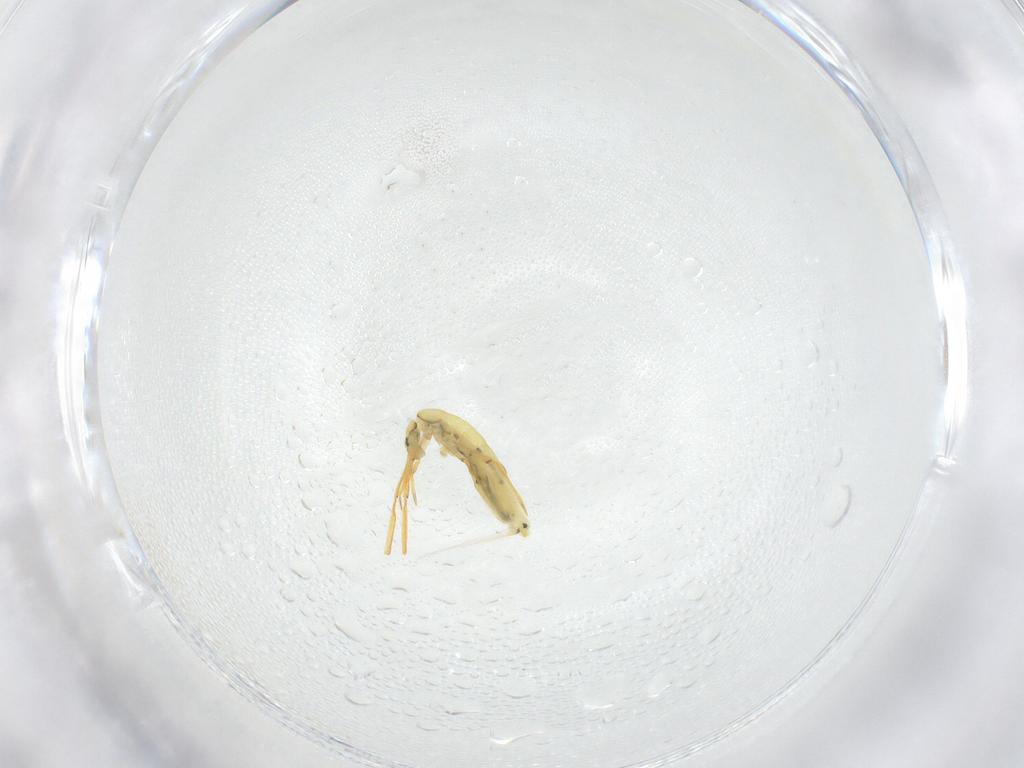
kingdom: Animalia
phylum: Arthropoda
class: Collembola
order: Entomobryomorpha
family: Entomobryidae
